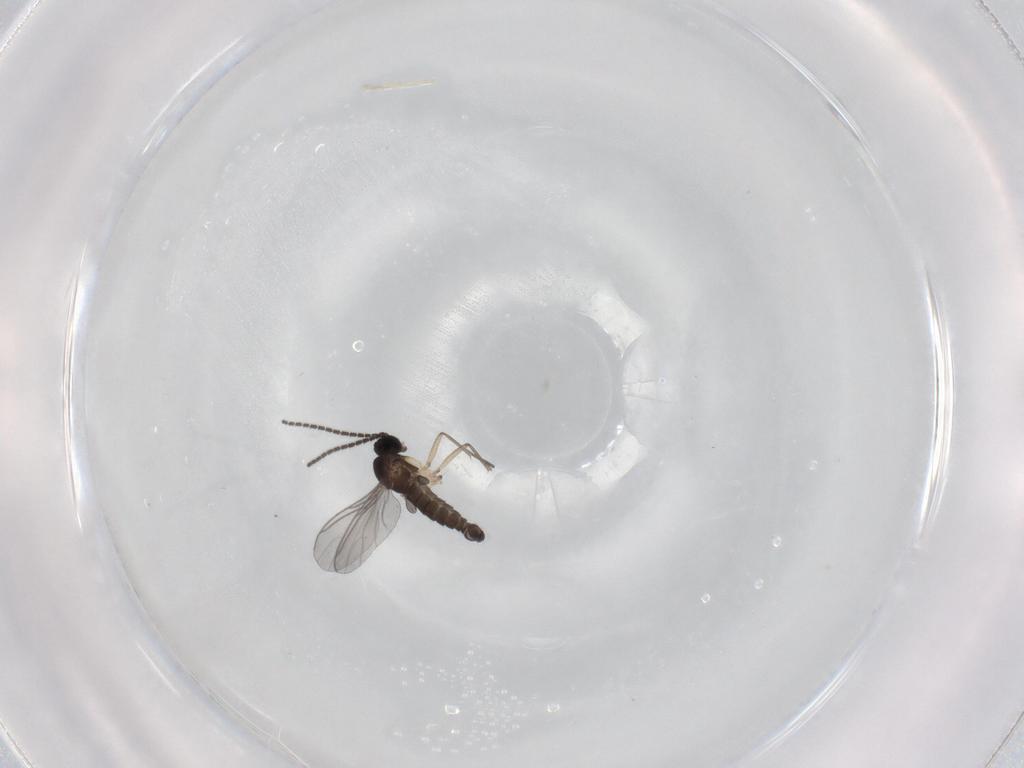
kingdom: Animalia
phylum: Arthropoda
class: Insecta
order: Diptera
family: Sciaridae
